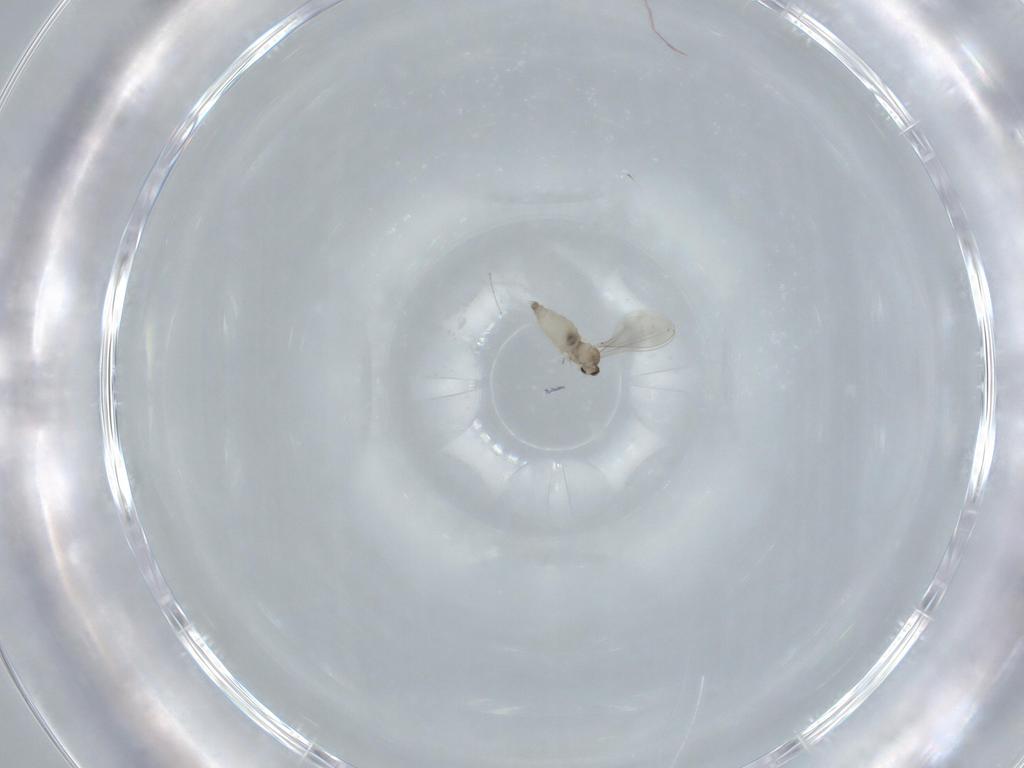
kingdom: Animalia
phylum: Arthropoda
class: Insecta
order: Diptera
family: Cecidomyiidae
